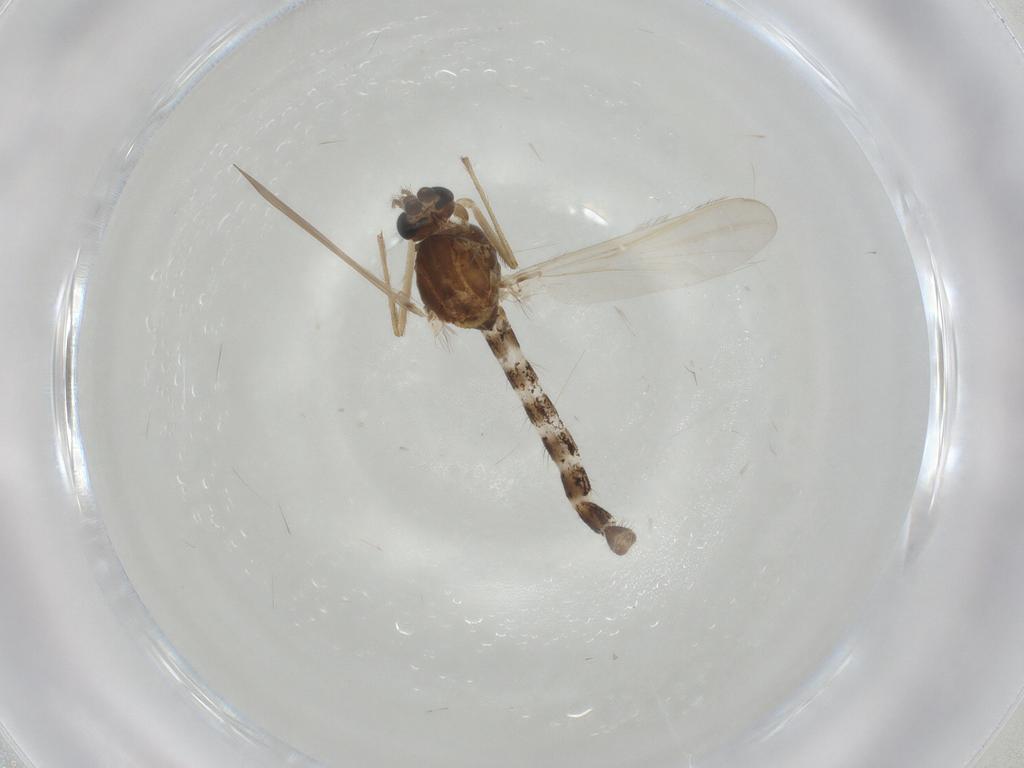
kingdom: Animalia
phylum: Arthropoda
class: Insecta
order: Diptera
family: Chironomidae
